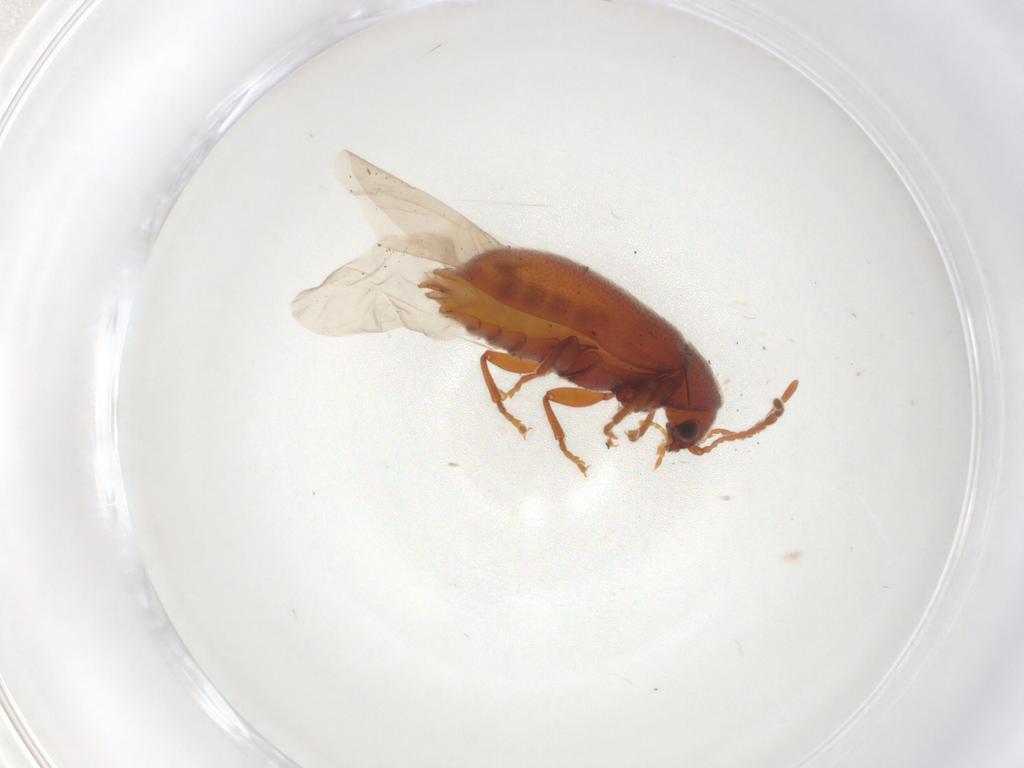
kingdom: Animalia
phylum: Arthropoda
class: Insecta
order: Coleoptera
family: Ptinidae
